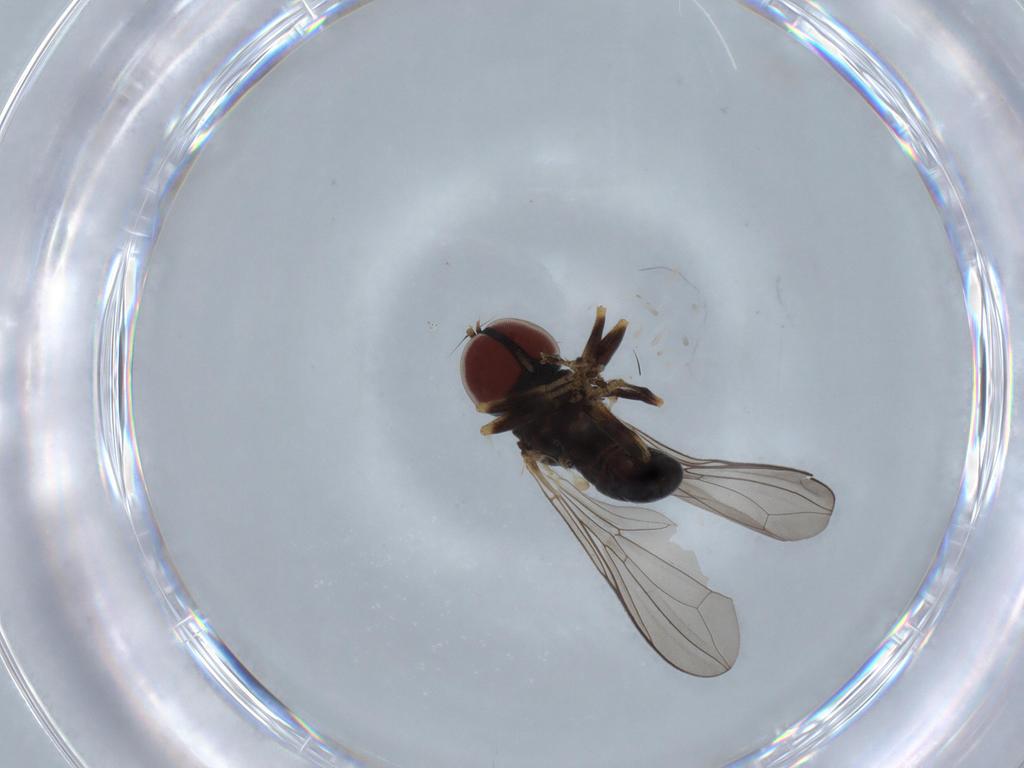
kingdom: Animalia
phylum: Arthropoda
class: Insecta
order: Diptera
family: Pipunculidae
